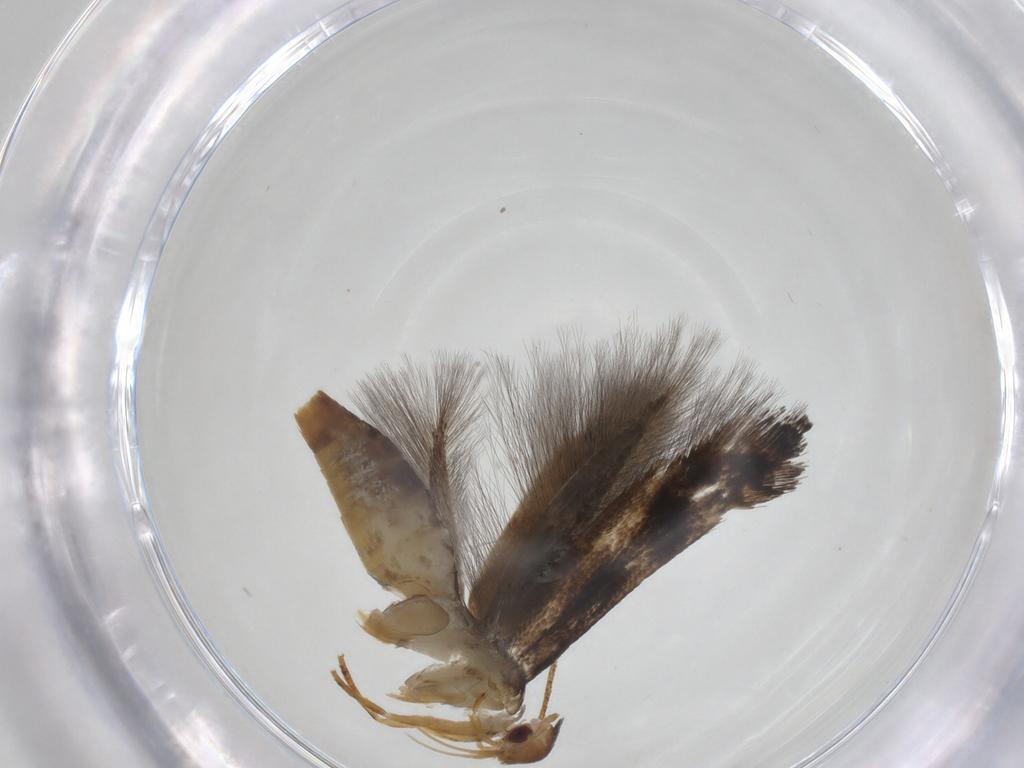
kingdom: Animalia
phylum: Arthropoda
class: Insecta
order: Lepidoptera
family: Momphidae
